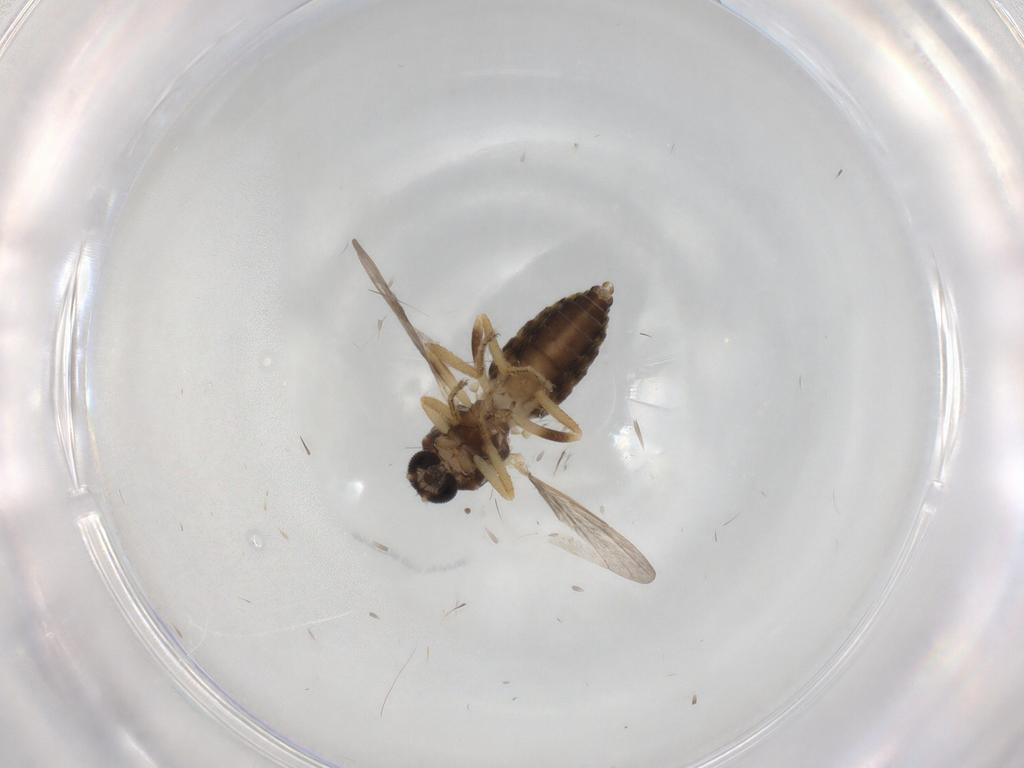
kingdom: Animalia
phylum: Arthropoda
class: Insecta
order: Diptera
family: Ceratopogonidae
